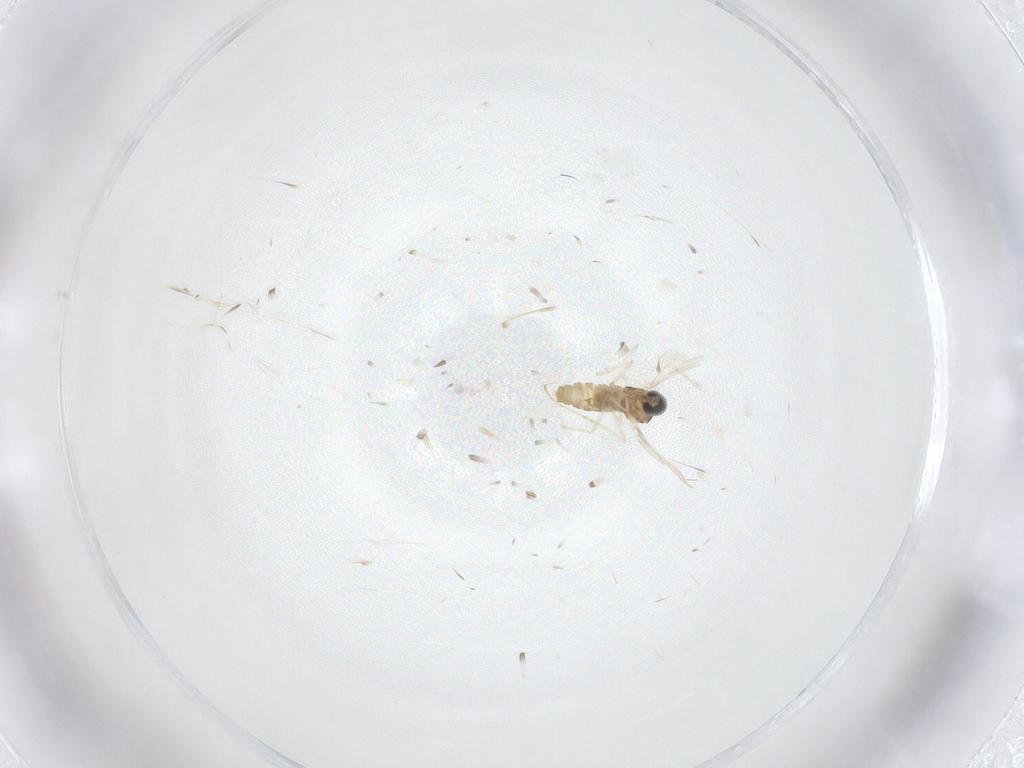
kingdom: Animalia
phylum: Arthropoda
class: Insecta
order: Diptera
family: Cecidomyiidae
